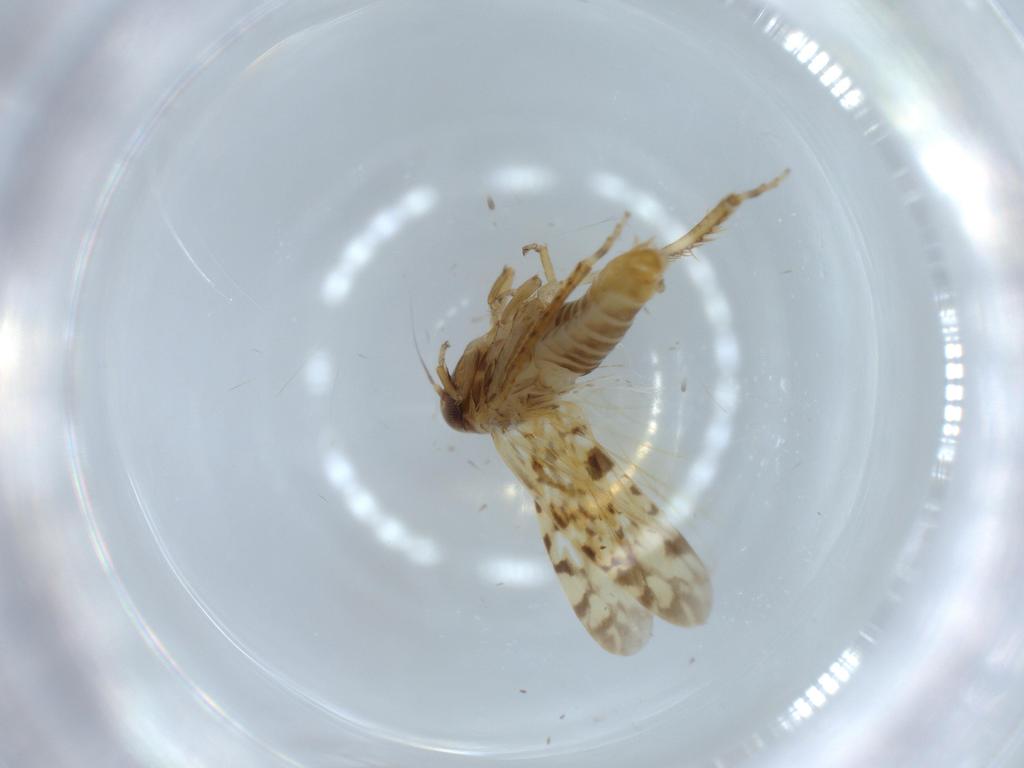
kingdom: Animalia
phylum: Arthropoda
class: Insecta
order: Hemiptera
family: Cicadellidae
